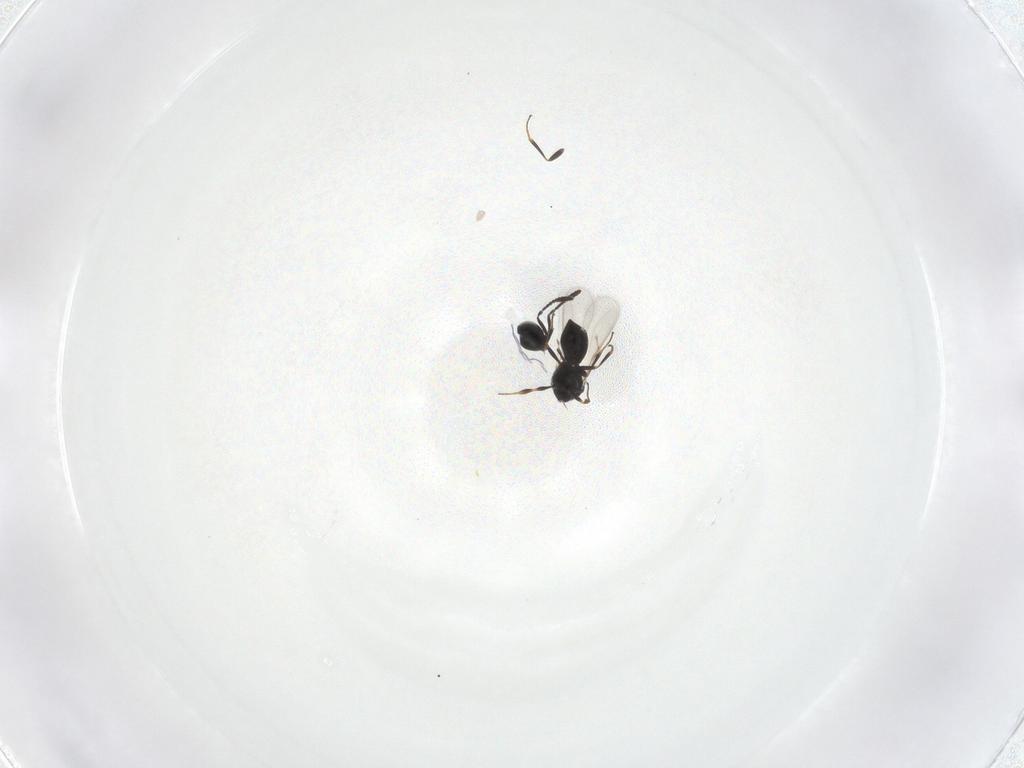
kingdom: Animalia
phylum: Arthropoda
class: Insecta
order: Hymenoptera
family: Scelionidae
